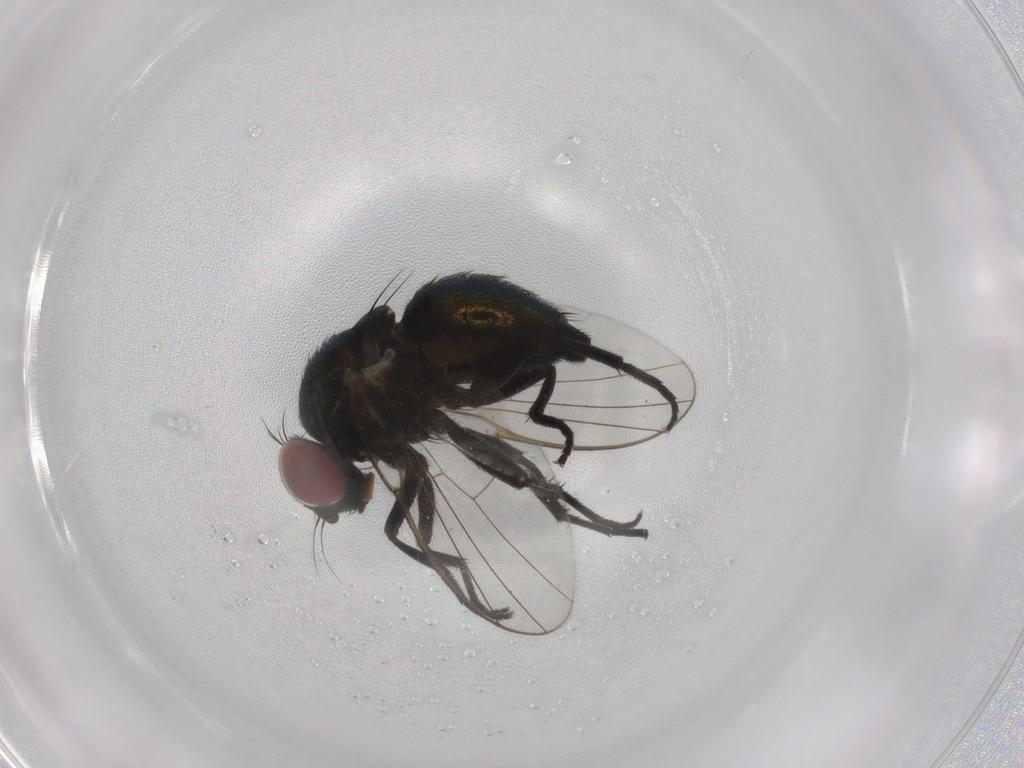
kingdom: Animalia
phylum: Arthropoda
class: Insecta
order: Diptera
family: Agromyzidae
